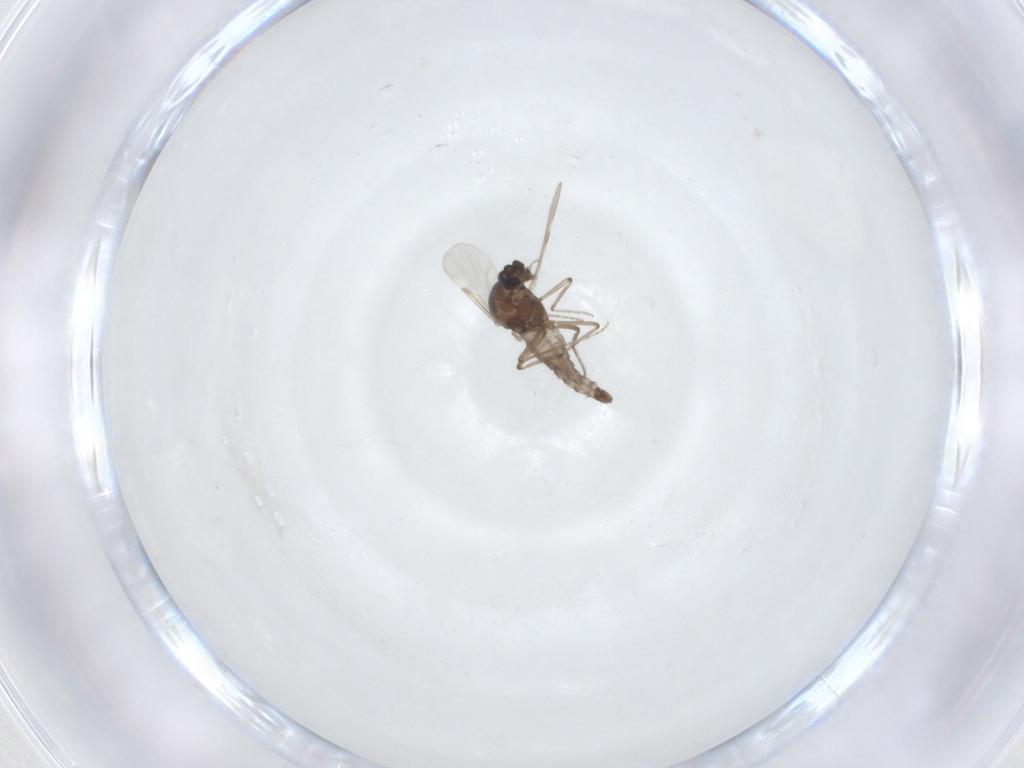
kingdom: Animalia
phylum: Arthropoda
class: Insecta
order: Diptera
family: Ceratopogonidae
